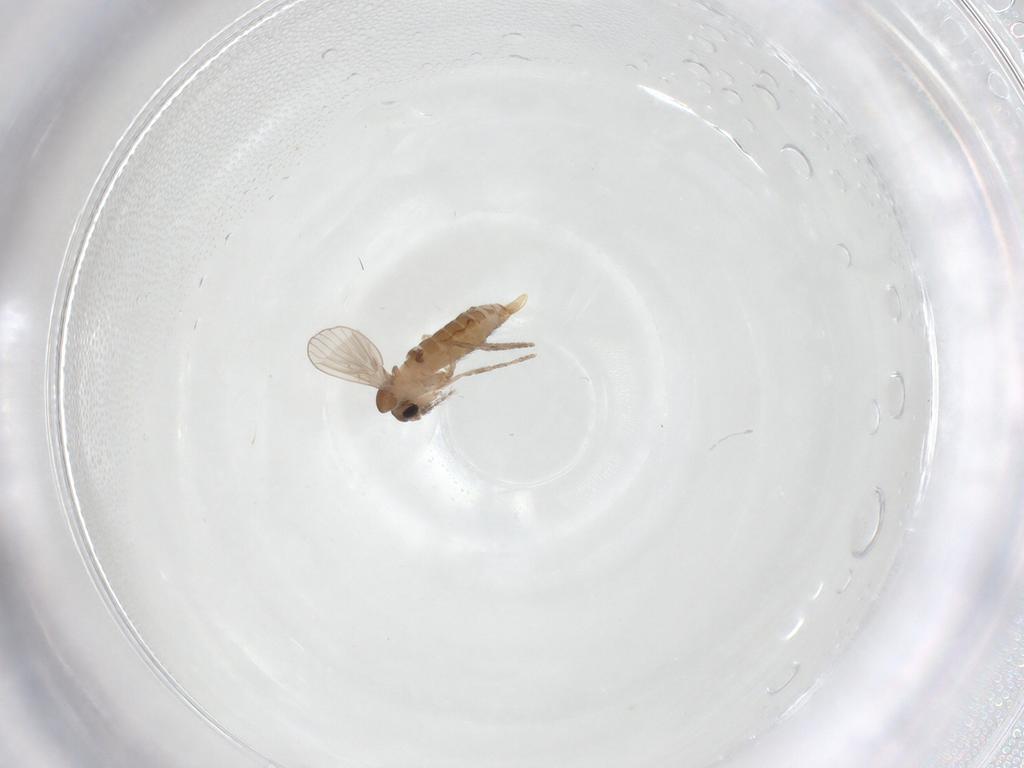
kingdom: Animalia
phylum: Arthropoda
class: Insecta
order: Diptera
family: Psychodidae
